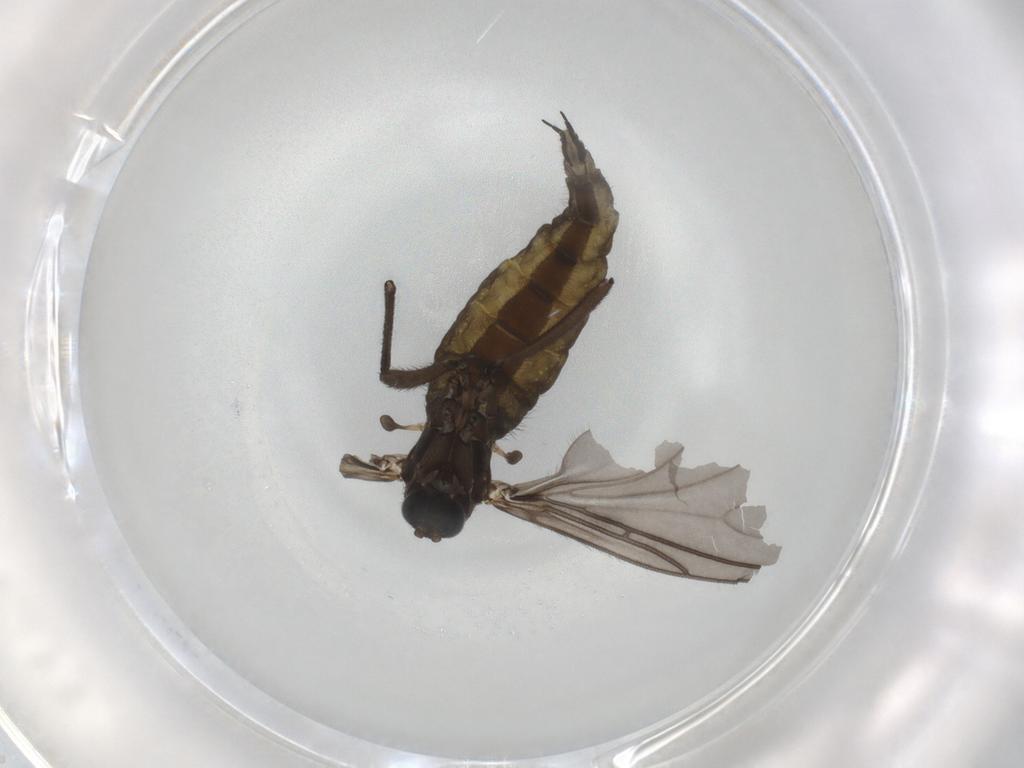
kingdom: Animalia
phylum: Arthropoda
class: Insecta
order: Diptera
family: Sciaridae
